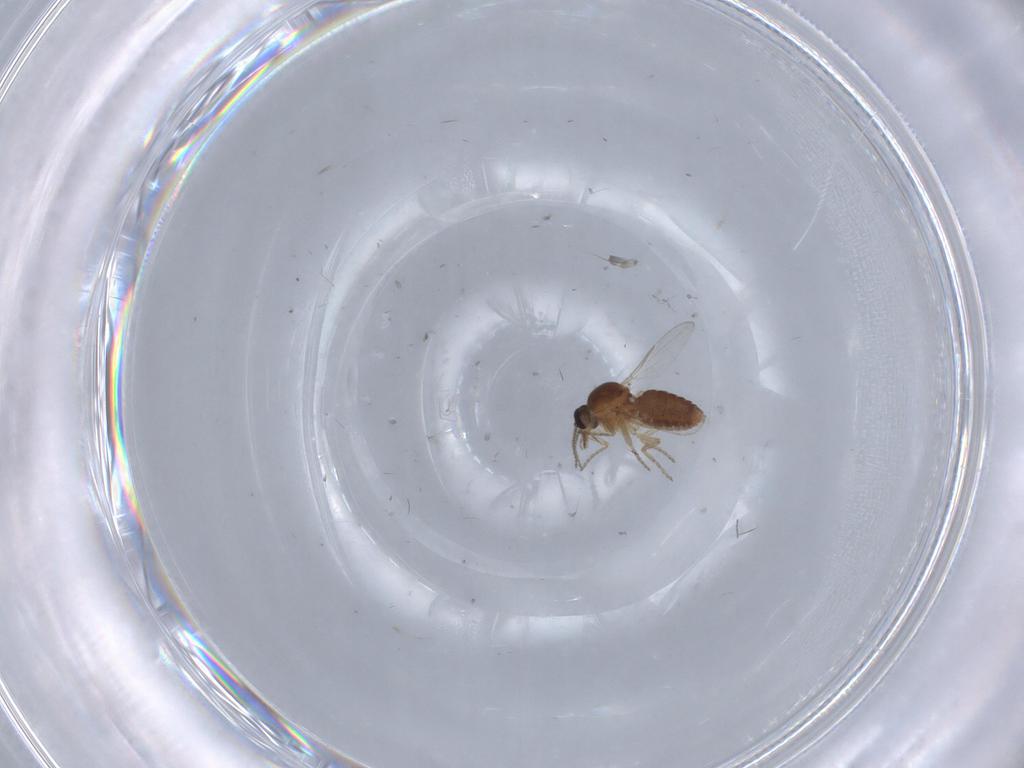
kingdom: Animalia
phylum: Arthropoda
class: Insecta
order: Diptera
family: Ceratopogonidae
